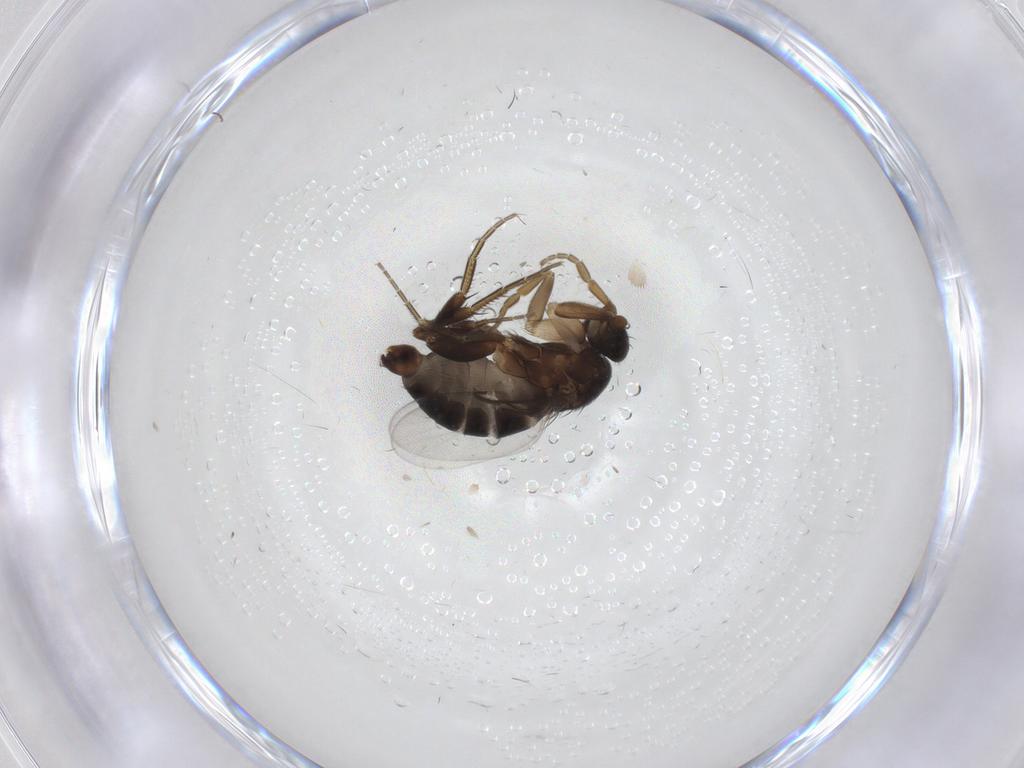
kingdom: Animalia
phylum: Arthropoda
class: Insecta
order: Diptera
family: Phoridae
